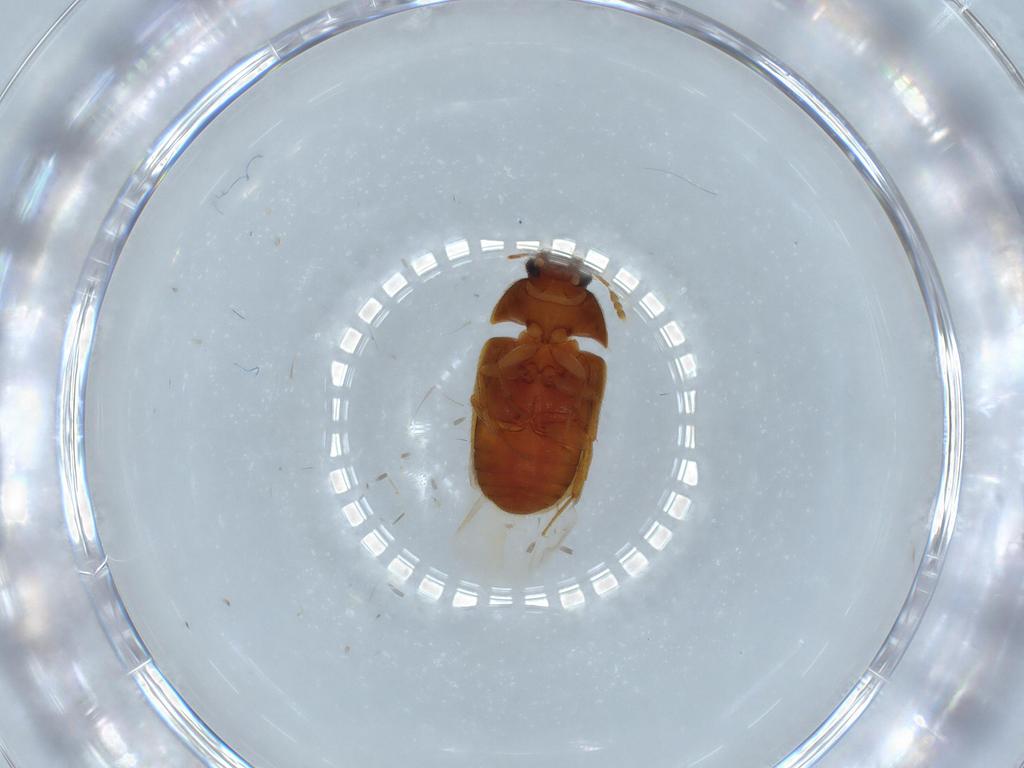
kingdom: Animalia
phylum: Arthropoda
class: Insecta
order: Coleoptera
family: Mycetophagidae
